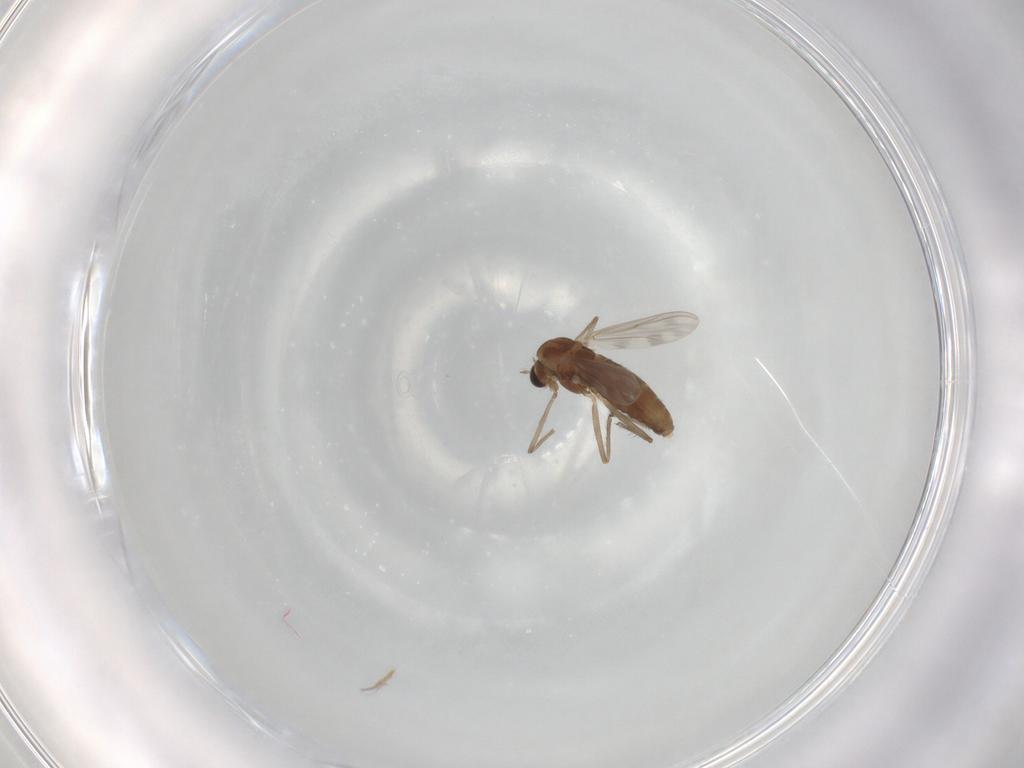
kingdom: Animalia
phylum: Arthropoda
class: Insecta
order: Diptera
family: Chironomidae
